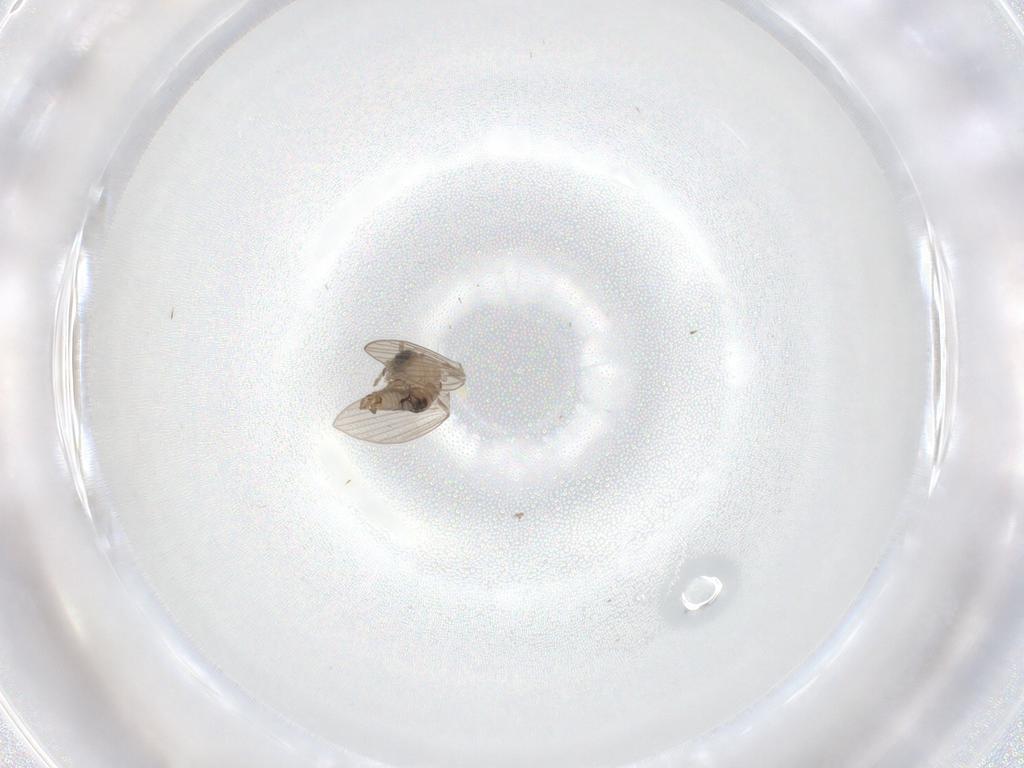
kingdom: Animalia
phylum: Arthropoda
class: Insecta
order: Diptera
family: Cecidomyiidae
